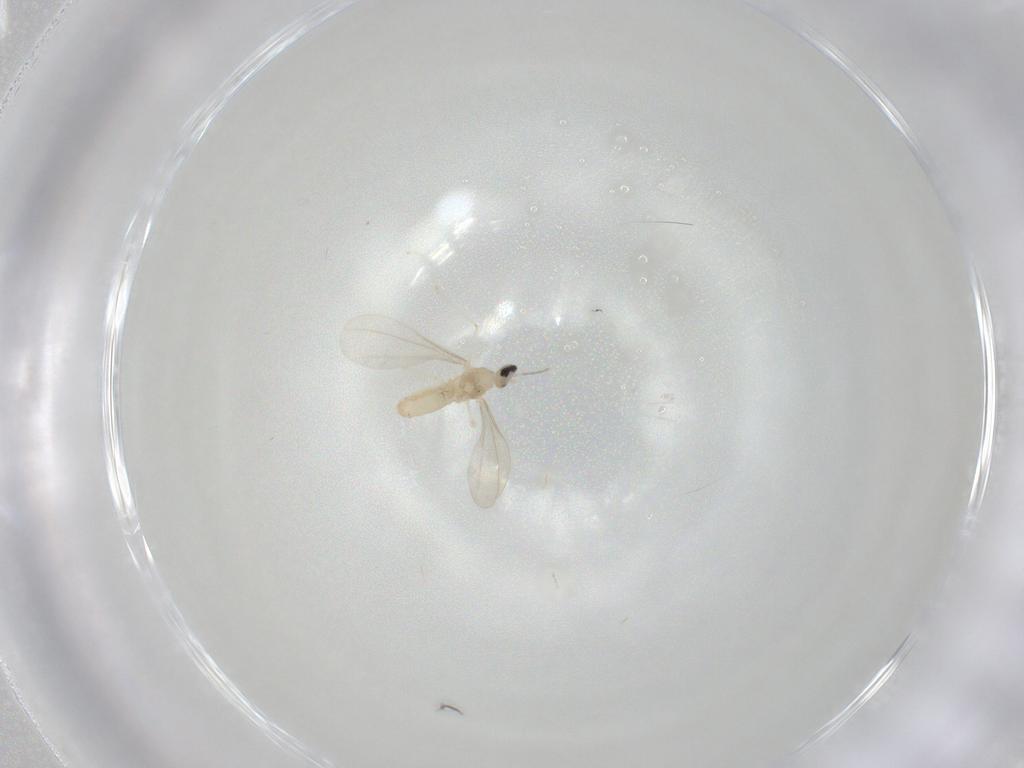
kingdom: Animalia
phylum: Arthropoda
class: Insecta
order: Diptera
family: Cecidomyiidae
